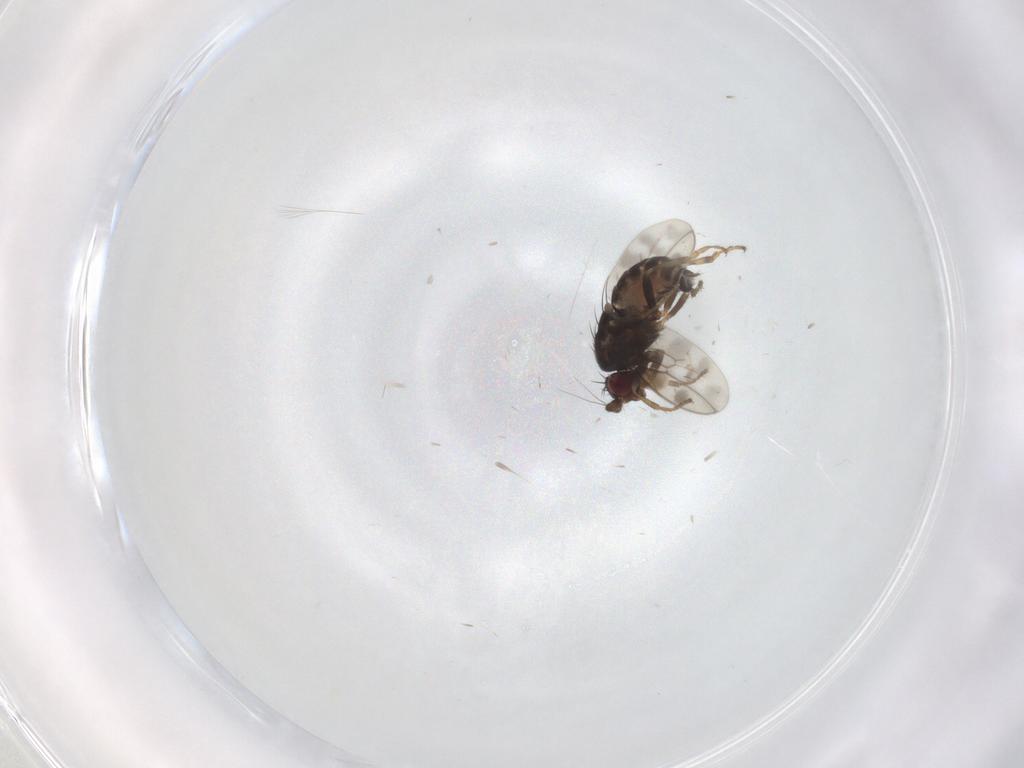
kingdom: Animalia
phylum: Arthropoda
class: Insecta
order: Diptera
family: Sphaeroceridae
